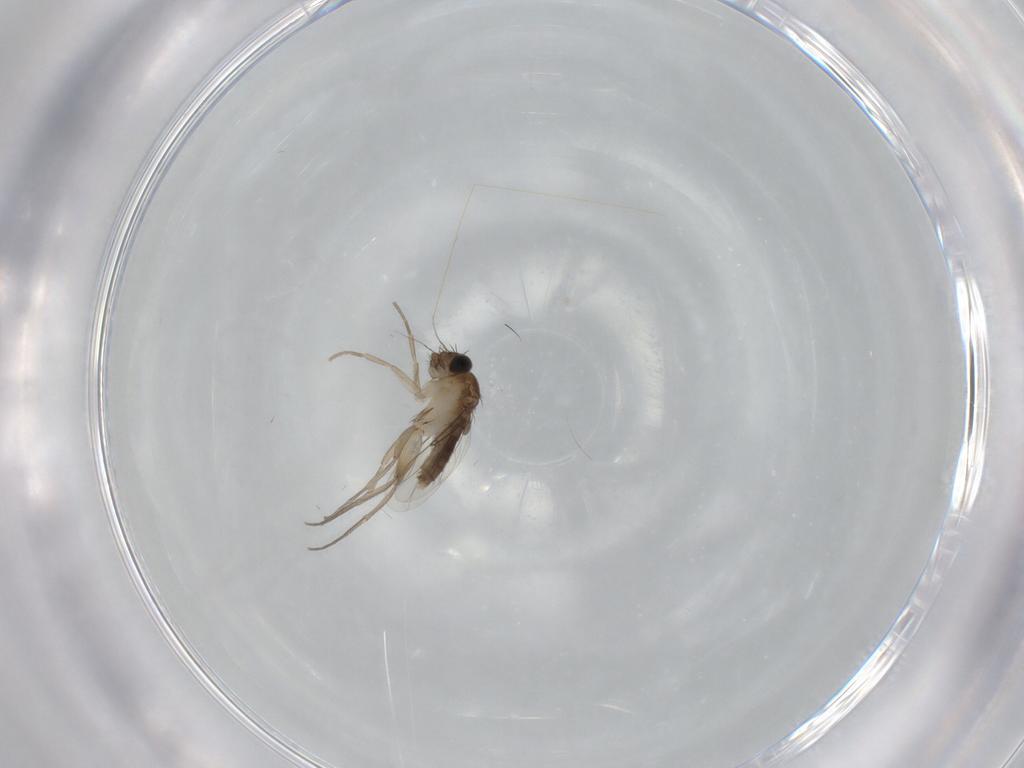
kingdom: Animalia
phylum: Arthropoda
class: Insecta
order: Diptera
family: Phoridae
